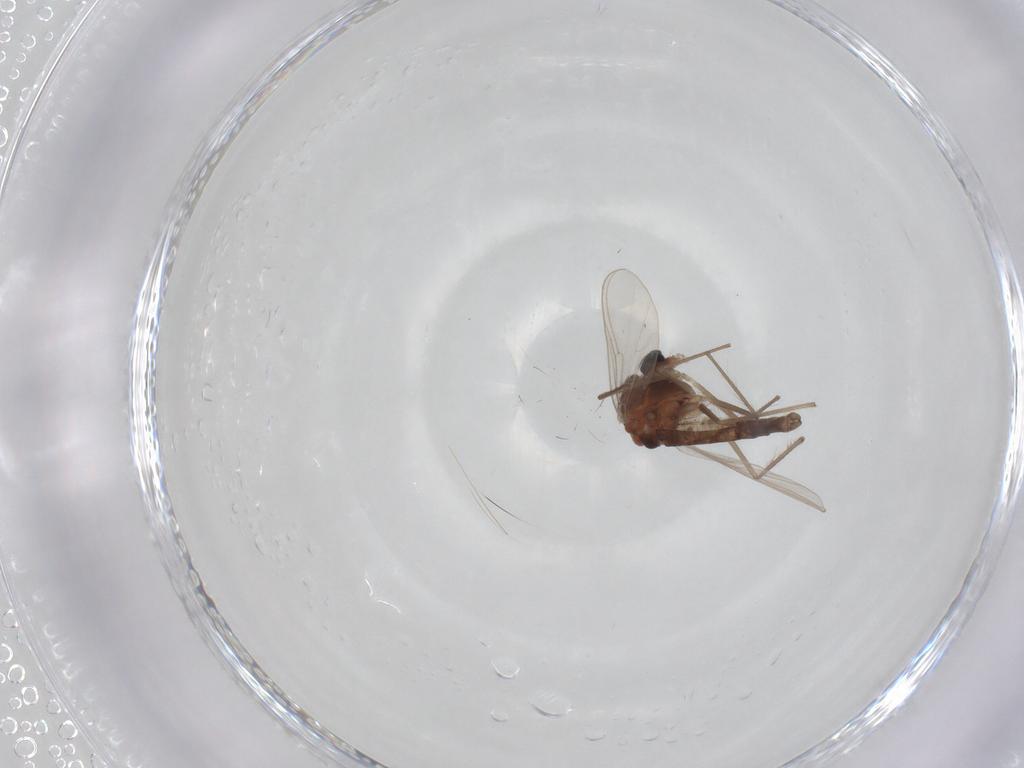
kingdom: Animalia
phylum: Arthropoda
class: Insecta
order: Diptera
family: Chironomidae
